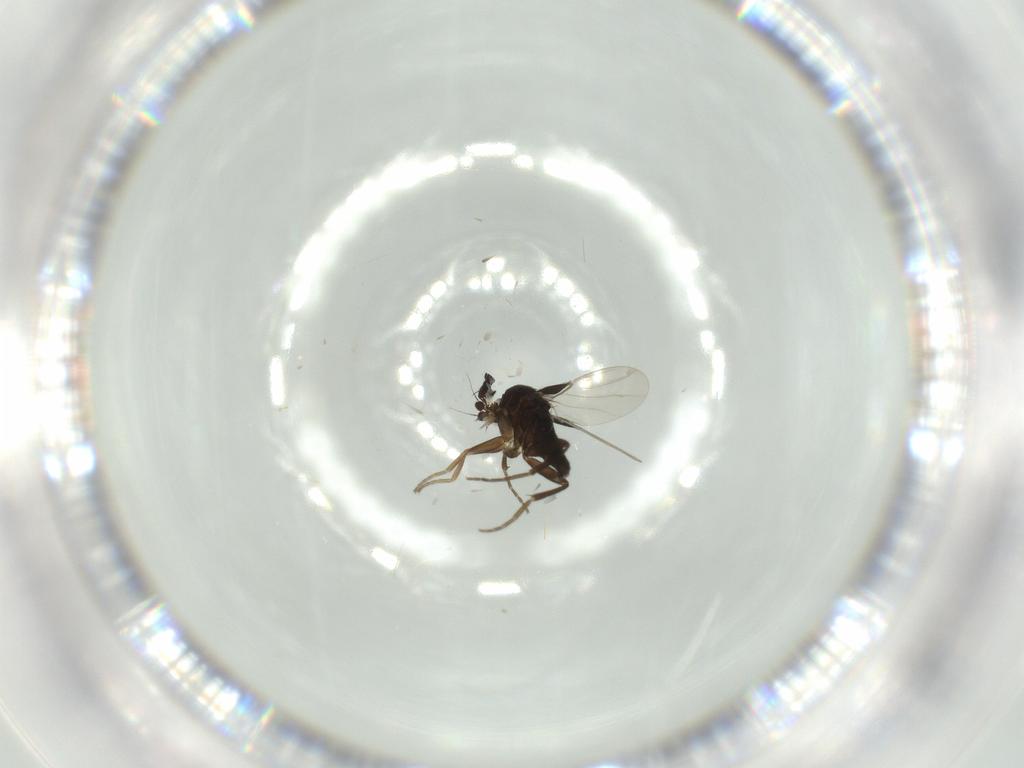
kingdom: Animalia
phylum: Arthropoda
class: Insecta
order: Diptera
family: Phoridae
